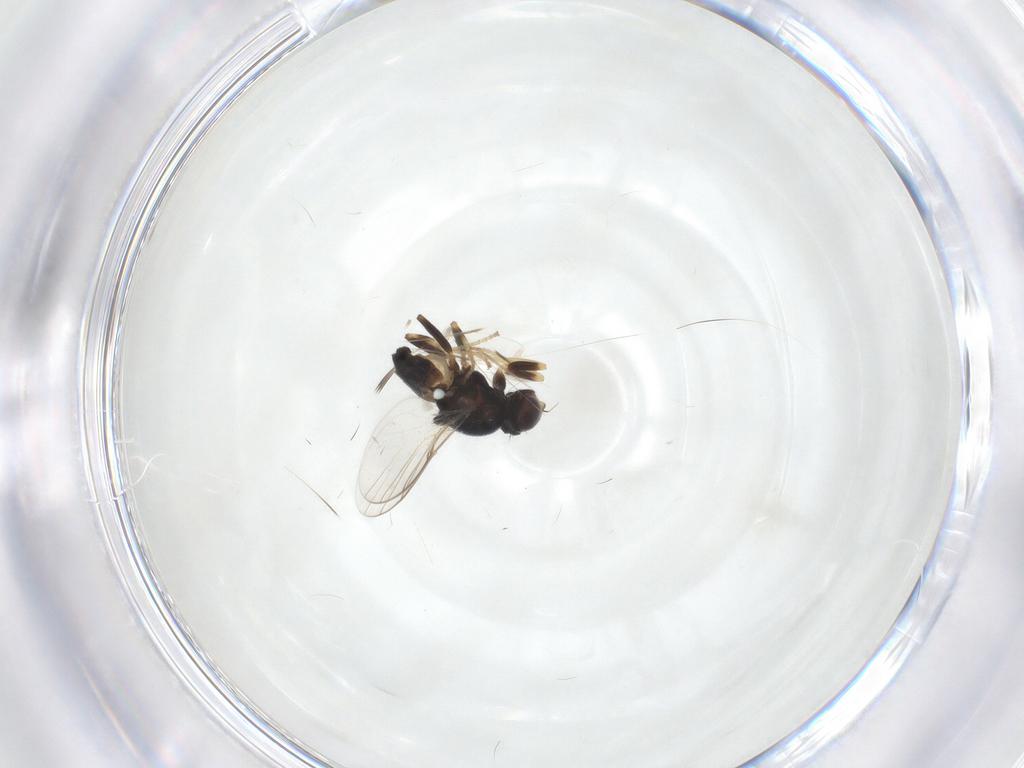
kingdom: Animalia
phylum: Arthropoda
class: Insecta
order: Diptera
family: Chloropidae
